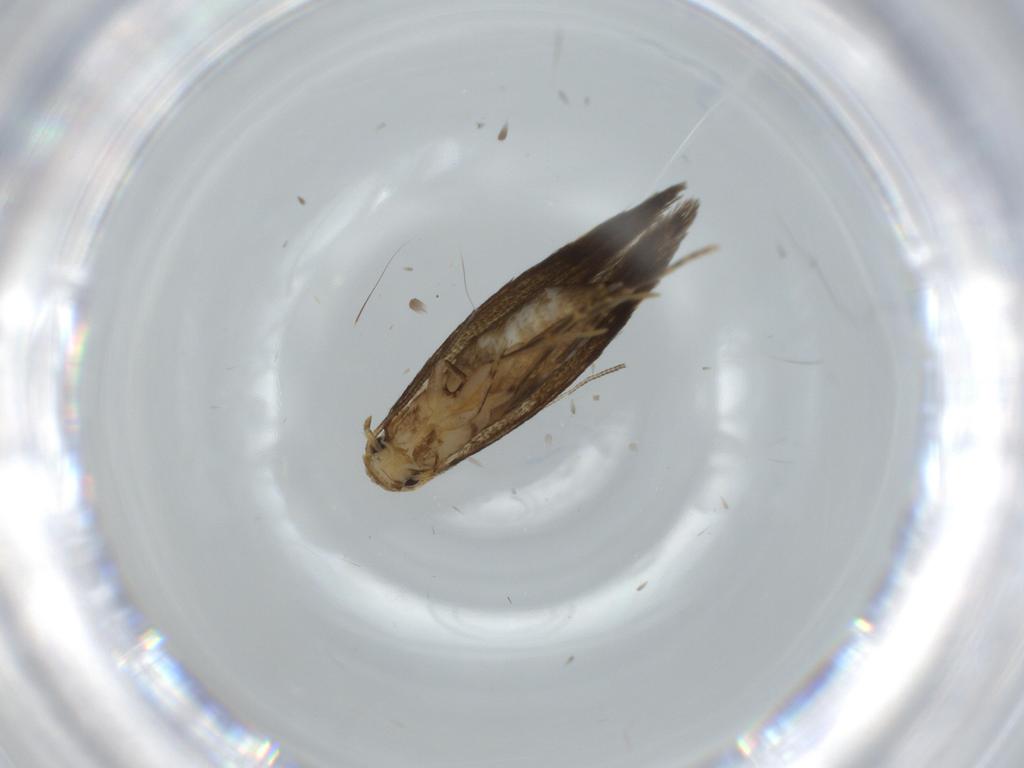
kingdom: Animalia
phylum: Arthropoda
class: Insecta
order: Lepidoptera
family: Tineidae
